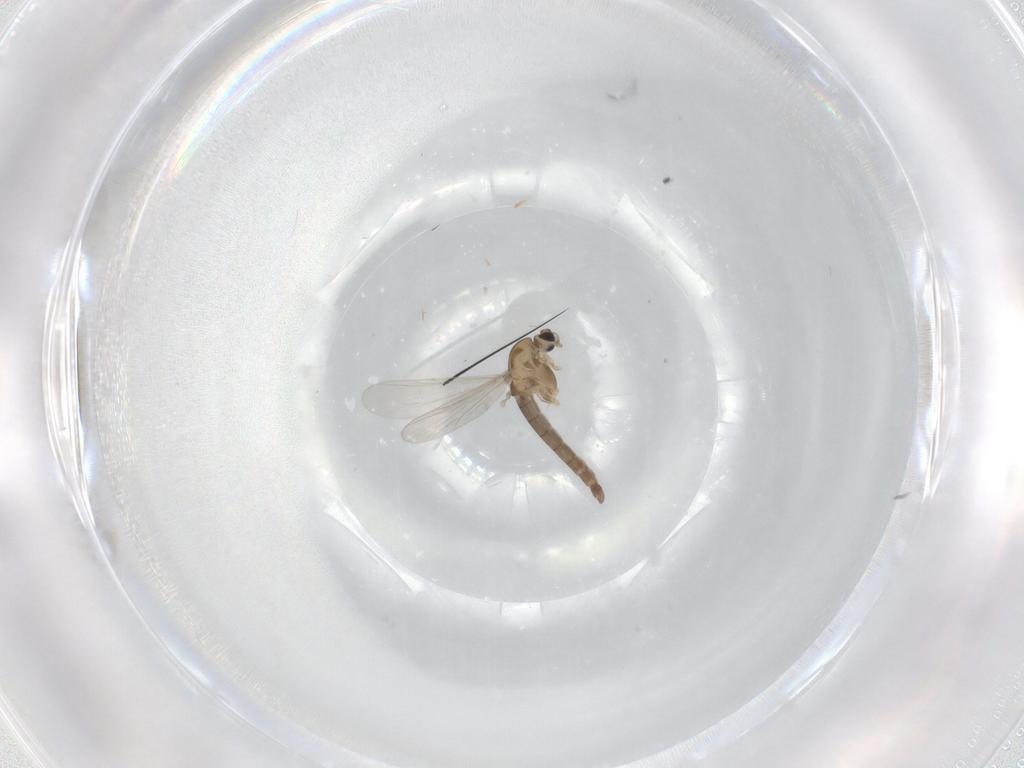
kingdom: Animalia
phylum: Arthropoda
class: Insecta
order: Diptera
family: Chironomidae
